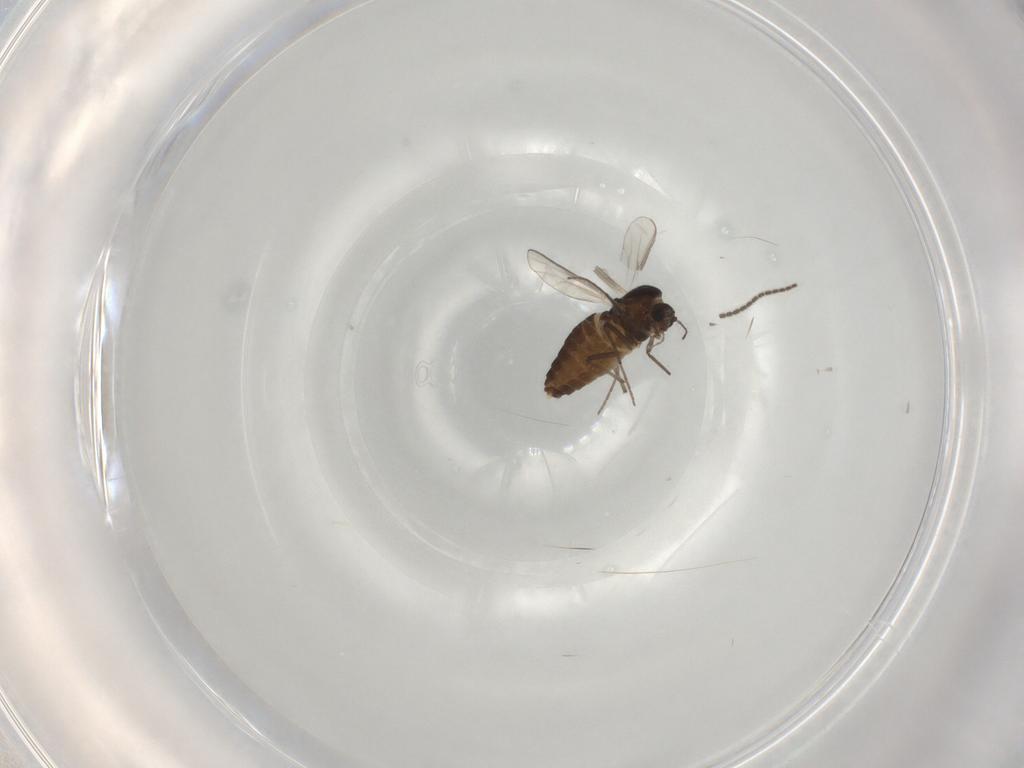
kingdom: Animalia
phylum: Arthropoda
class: Insecta
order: Diptera
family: Chironomidae
